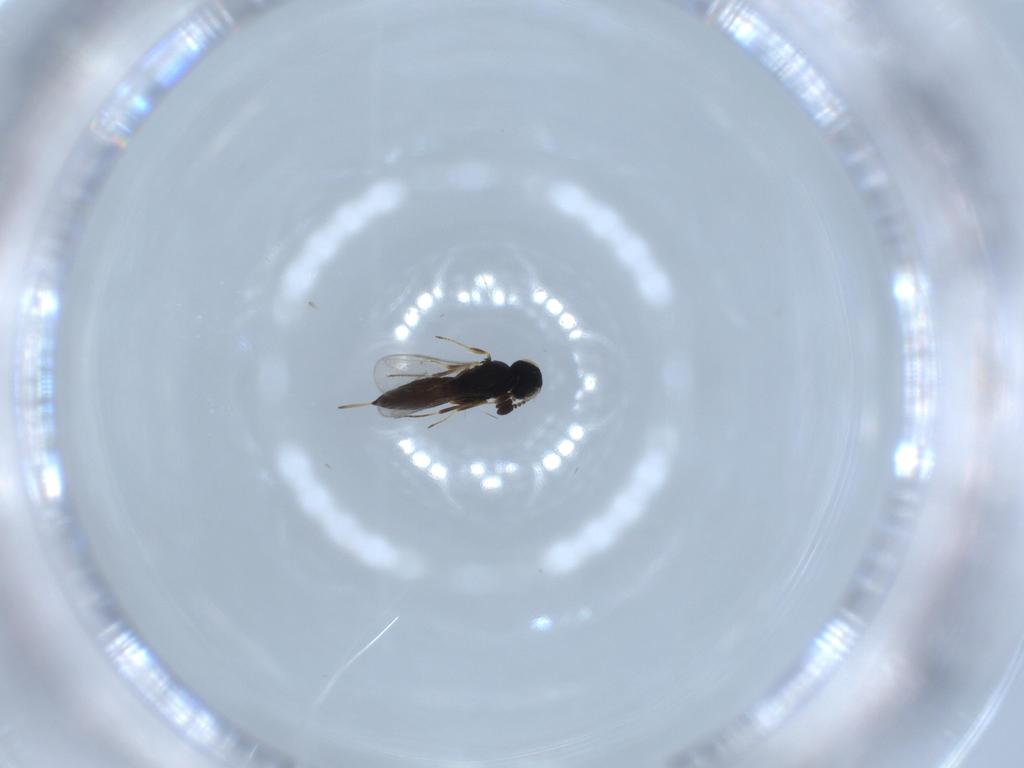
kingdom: Animalia
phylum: Arthropoda
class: Insecta
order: Hymenoptera
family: Scelionidae
